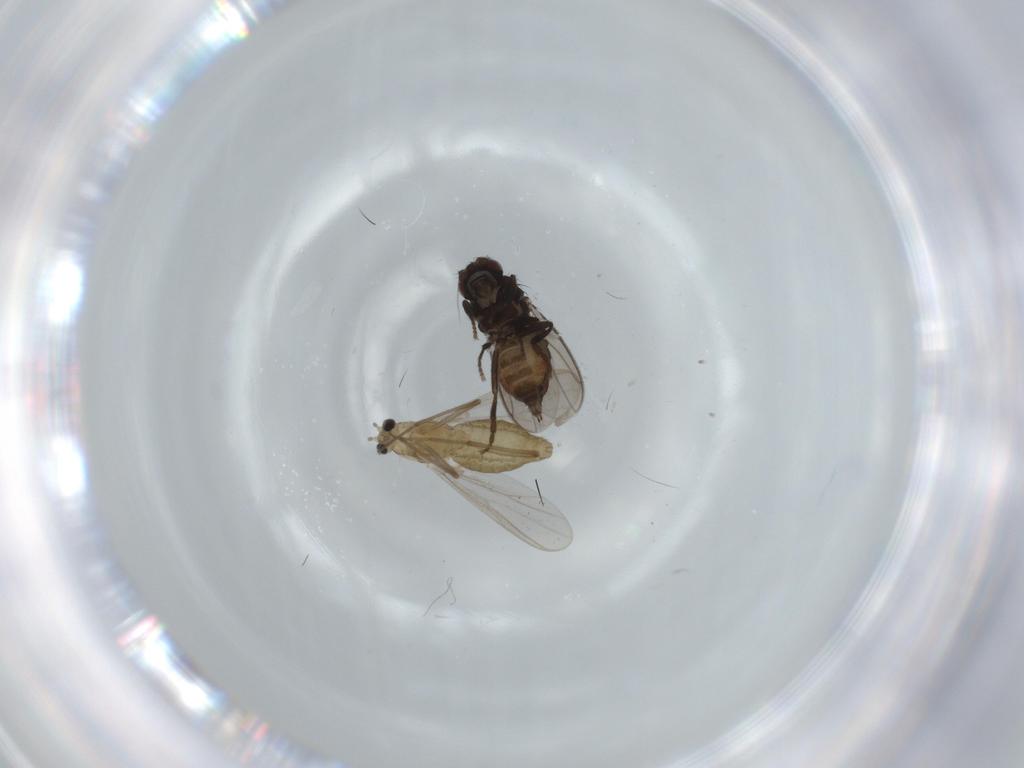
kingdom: Animalia
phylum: Arthropoda
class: Insecta
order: Diptera
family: Chironomidae
